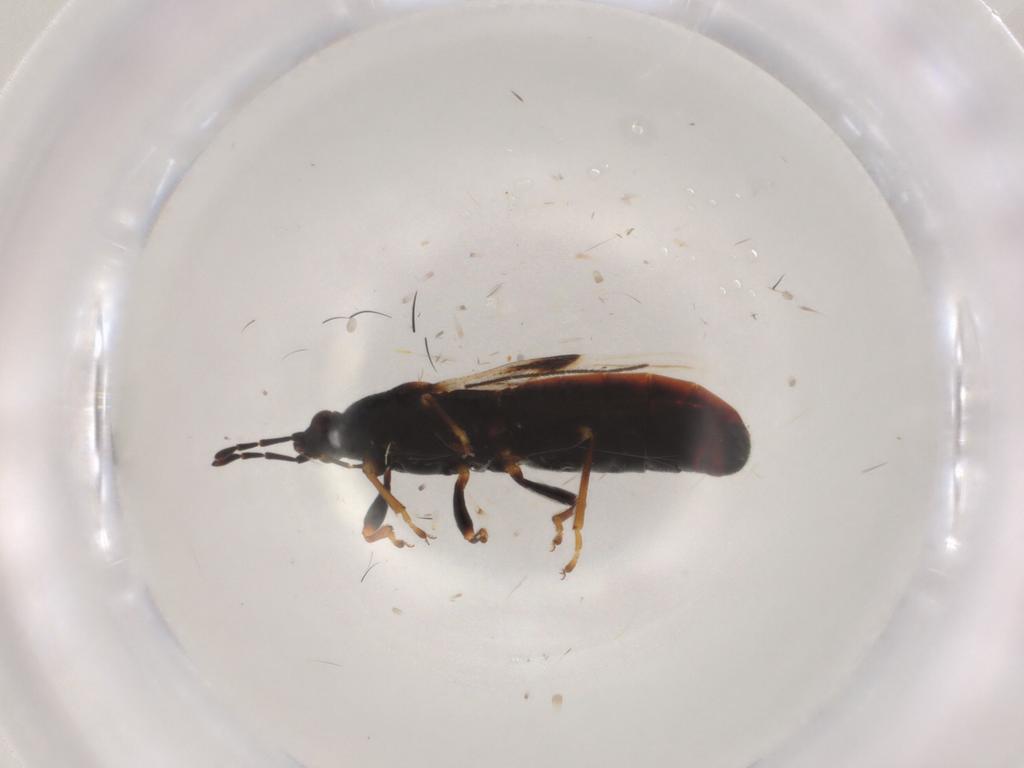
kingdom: Animalia
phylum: Arthropoda
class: Insecta
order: Hemiptera
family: Blissidae
